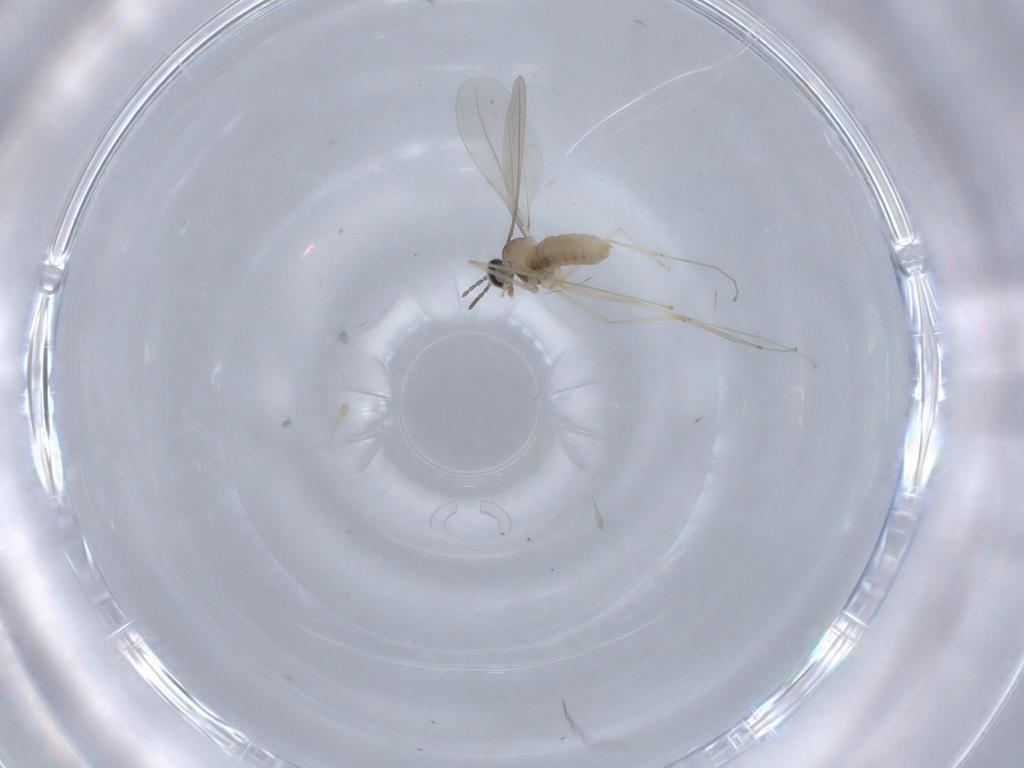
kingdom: Animalia
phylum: Arthropoda
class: Insecta
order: Diptera
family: Cecidomyiidae
